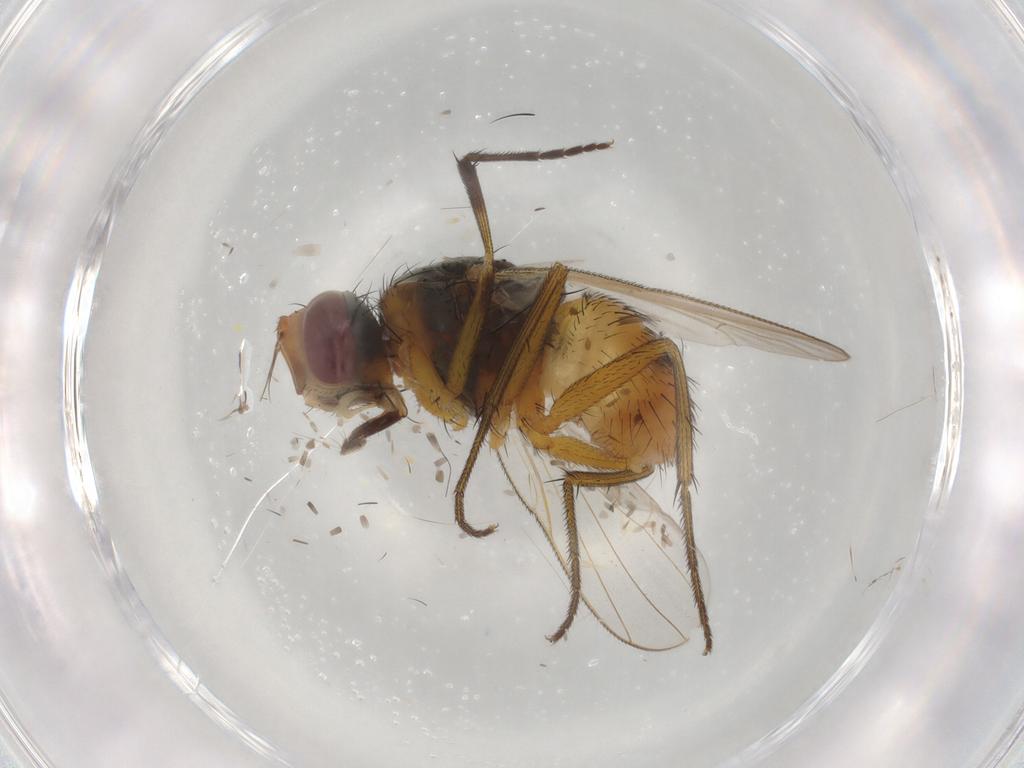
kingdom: Animalia
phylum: Arthropoda
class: Insecta
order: Diptera
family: Muscidae
